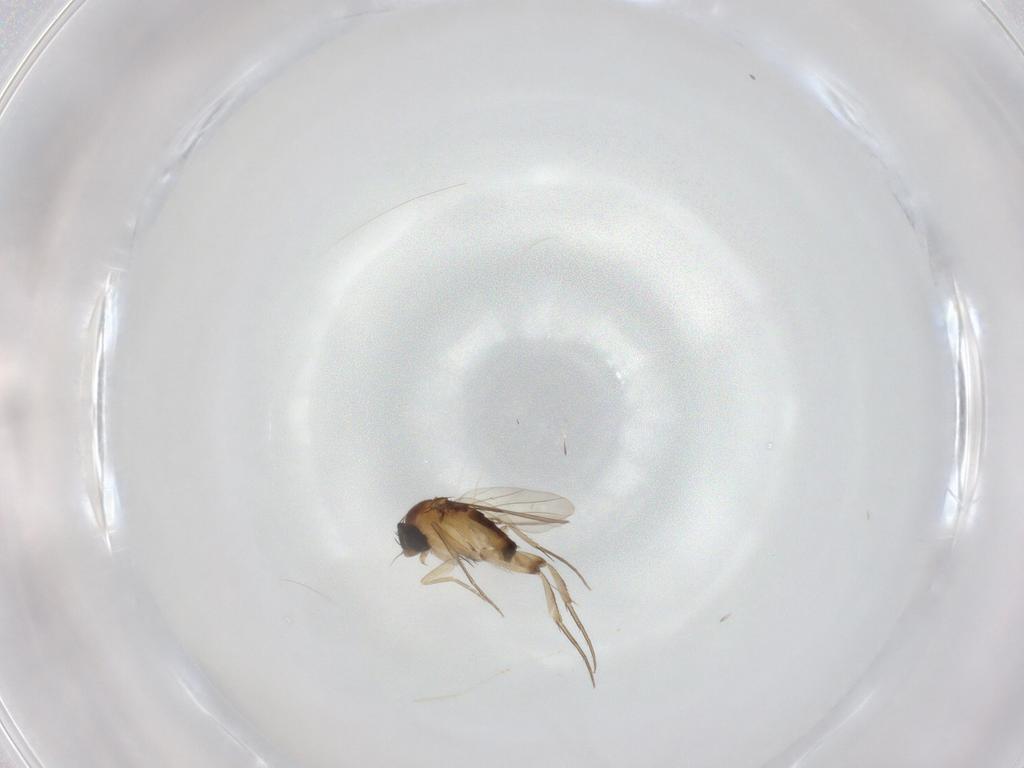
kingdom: Animalia
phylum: Arthropoda
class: Insecta
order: Diptera
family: Phoridae
